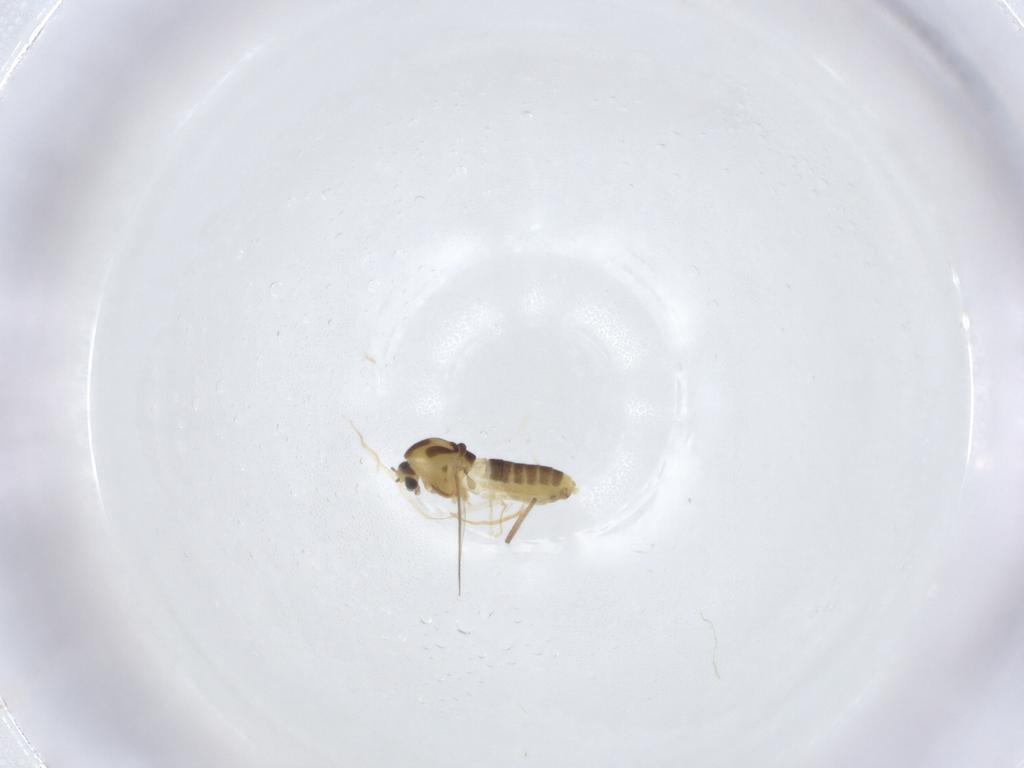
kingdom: Animalia
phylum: Arthropoda
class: Insecta
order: Diptera
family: Chironomidae
